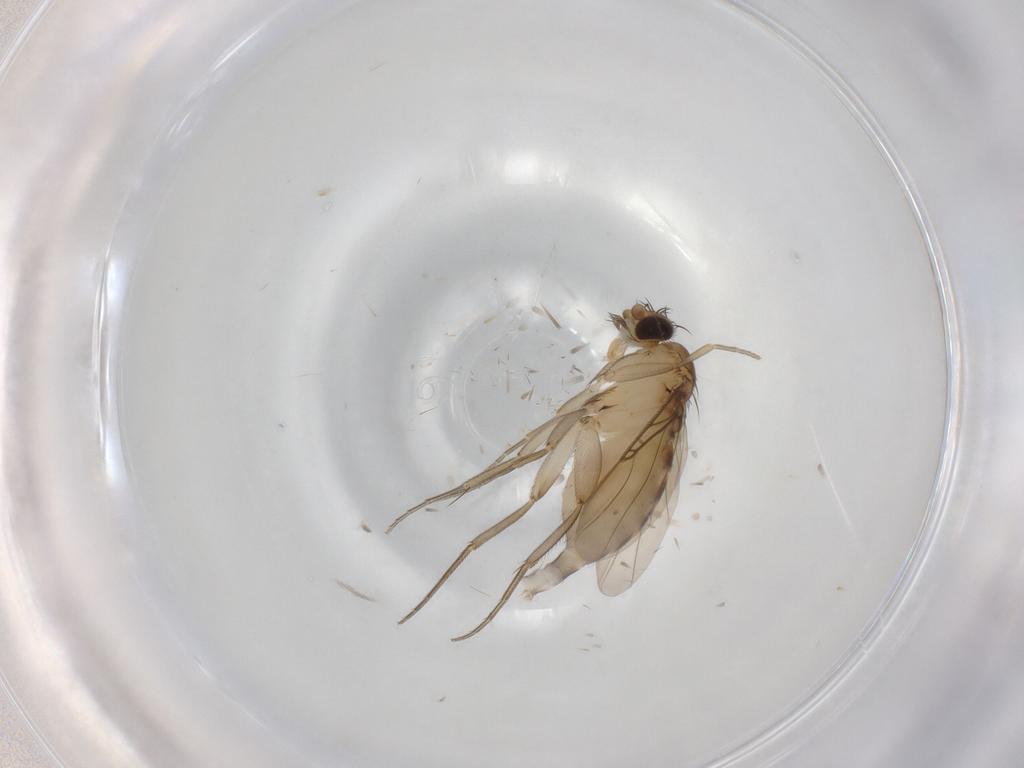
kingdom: Animalia
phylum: Arthropoda
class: Insecta
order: Diptera
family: Phoridae
